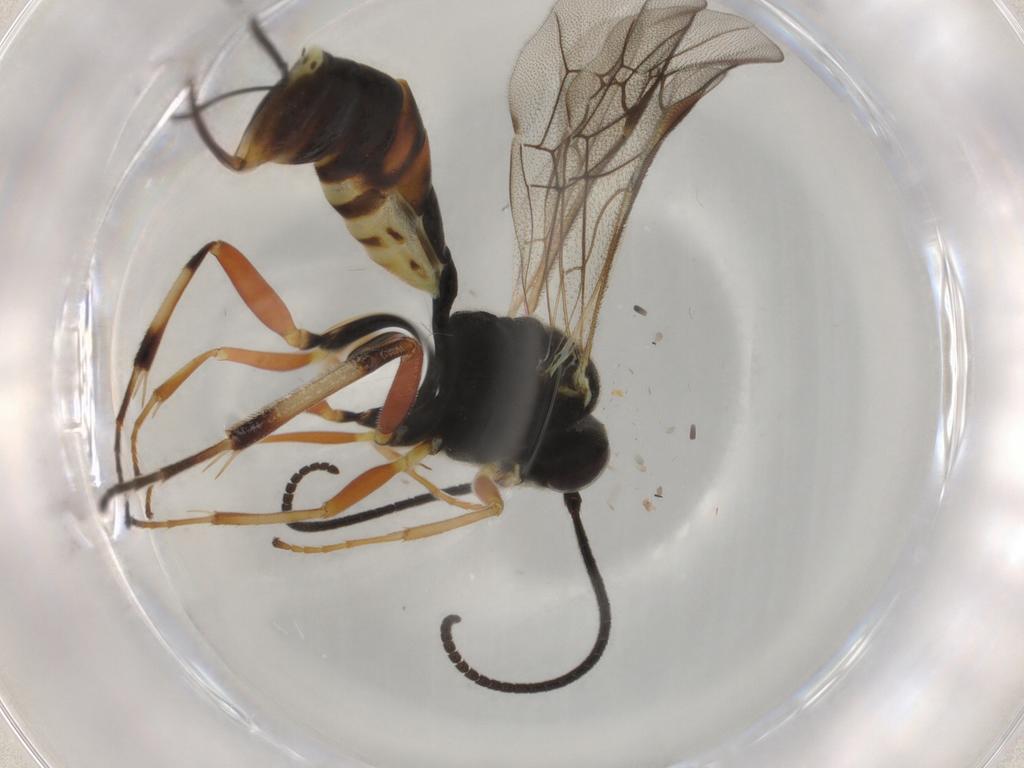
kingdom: Animalia
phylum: Arthropoda
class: Insecta
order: Hymenoptera
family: Ichneumonidae
